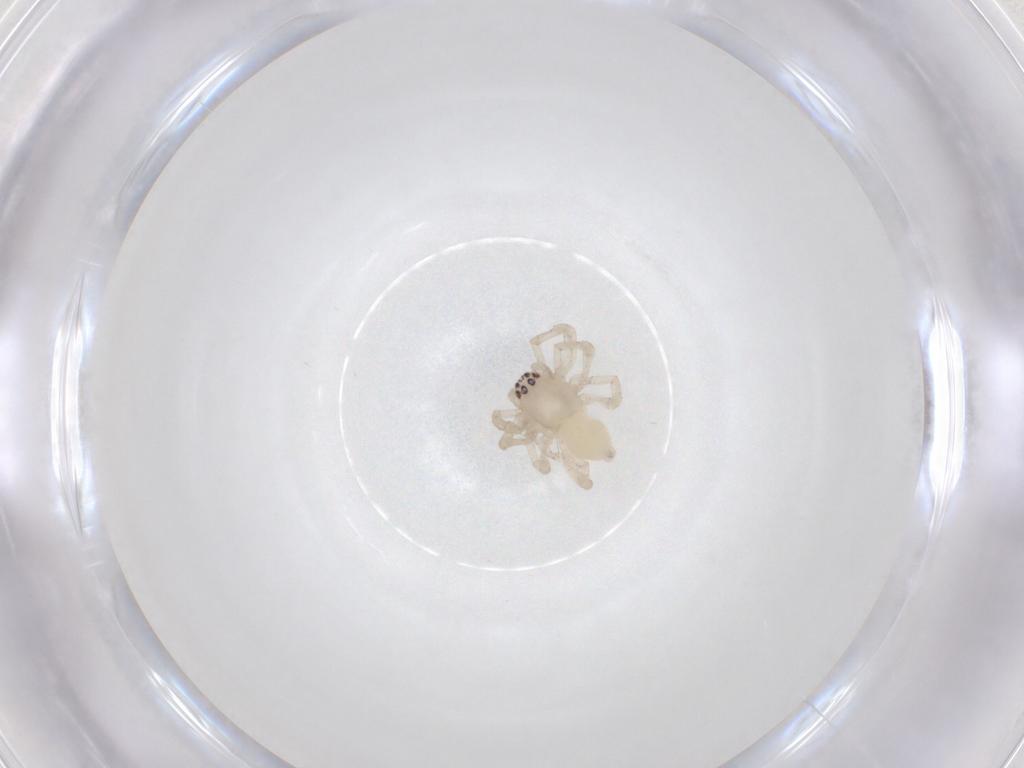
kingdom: Animalia
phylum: Arthropoda
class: Arachnida
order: Araneae
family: Anyphaenidae
